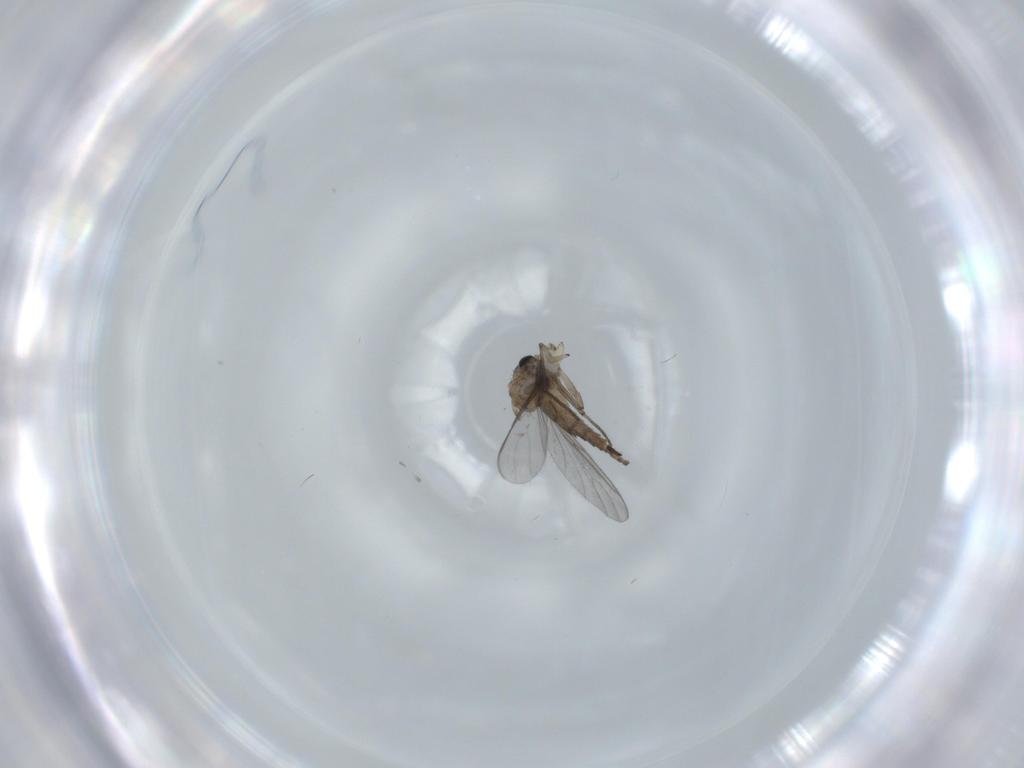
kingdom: Animalia
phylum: Arthropoda
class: Insecta
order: Diptera
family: Sciaridae
